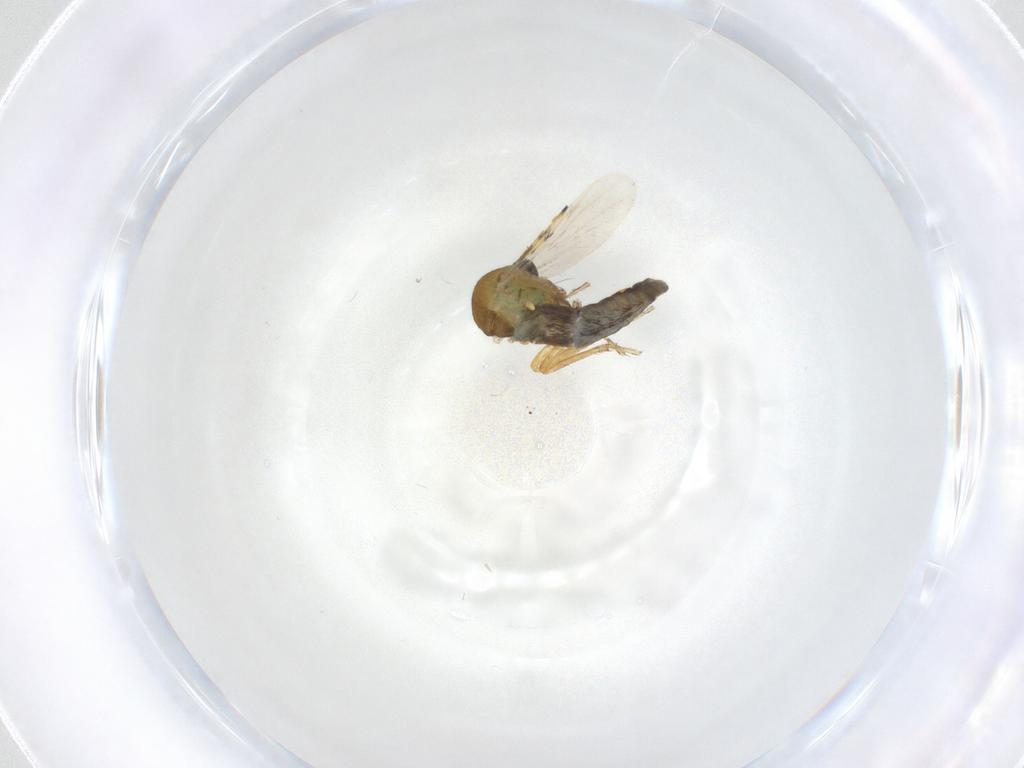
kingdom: Animalia
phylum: Arthropoda
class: Insecta
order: Diptera
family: Ceratopogonidae
